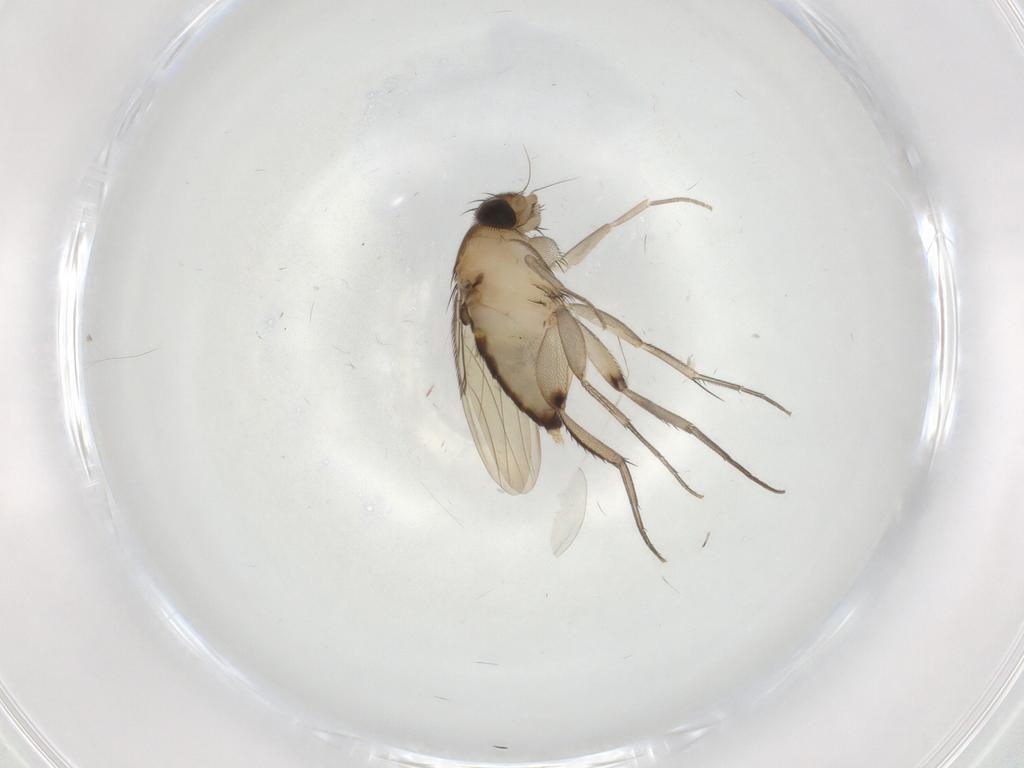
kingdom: Animalia
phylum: Arthropoda
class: Insecta
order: Diptera
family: Phoridae
